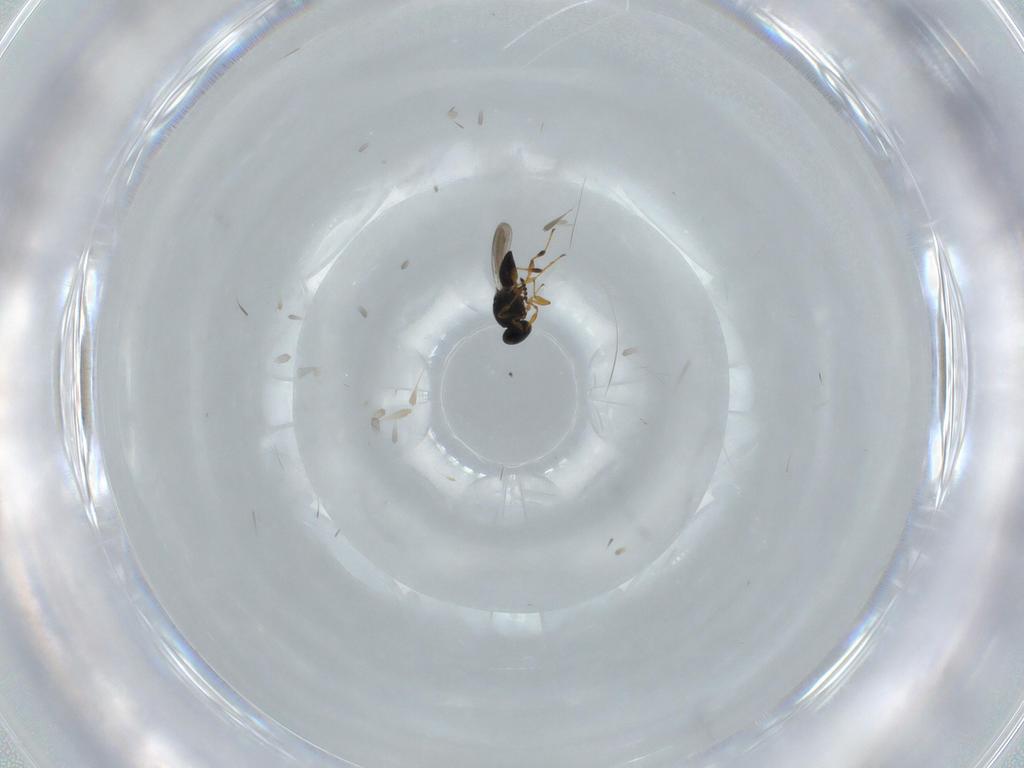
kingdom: Animalia
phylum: Arthropoda
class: Insecta
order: Hymenoptera
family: Platygastridae
